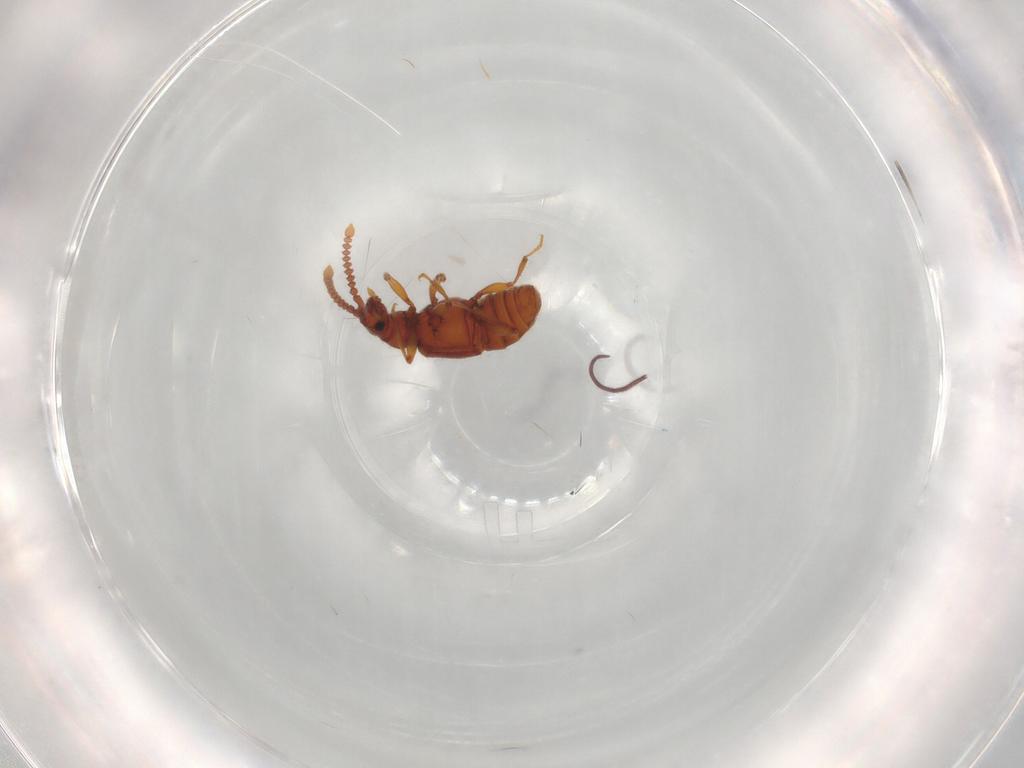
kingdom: Animalia
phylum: Arthropoda
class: Insecta
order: Coleoptera
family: Staphylinidae
